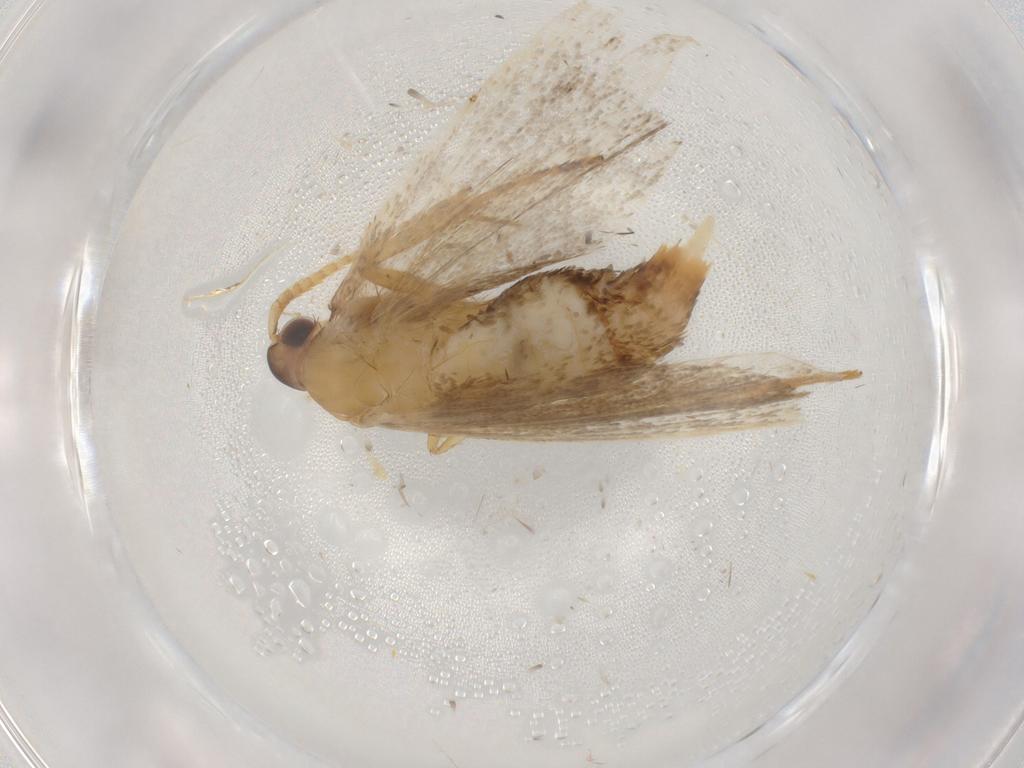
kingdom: Animalia
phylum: Arthropoda
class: Insecta
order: Lepidoptera
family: Lecithoceridae
